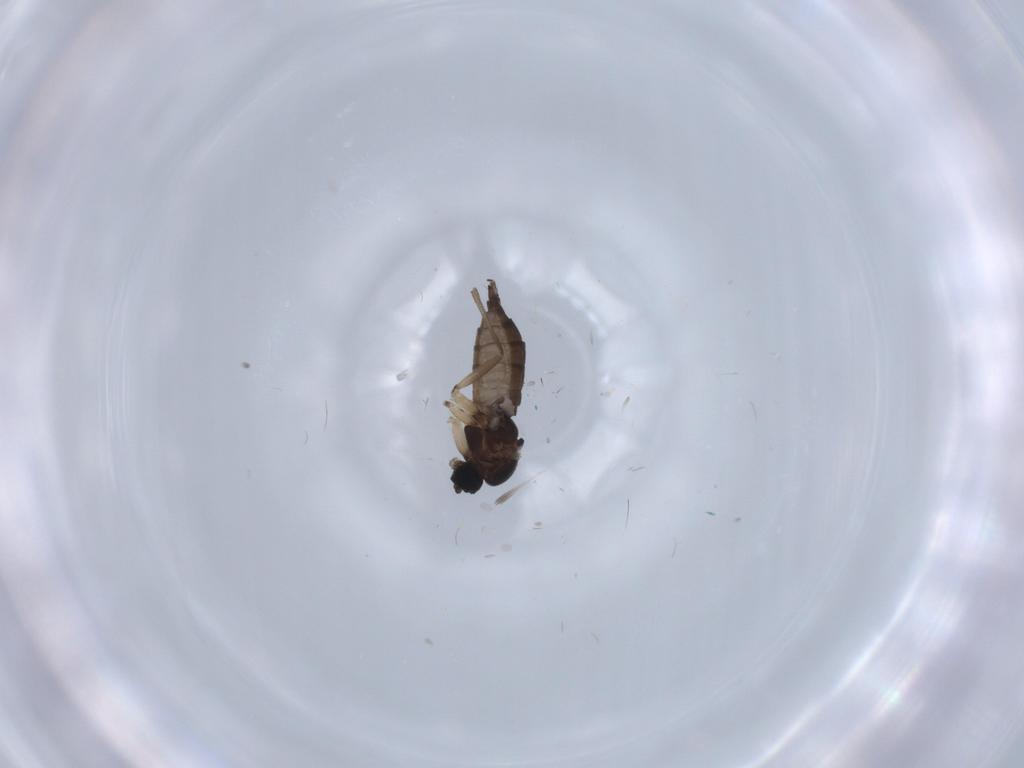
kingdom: Animalia
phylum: Arthropoda
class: Insecta
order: Diptera
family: Sciaridae
